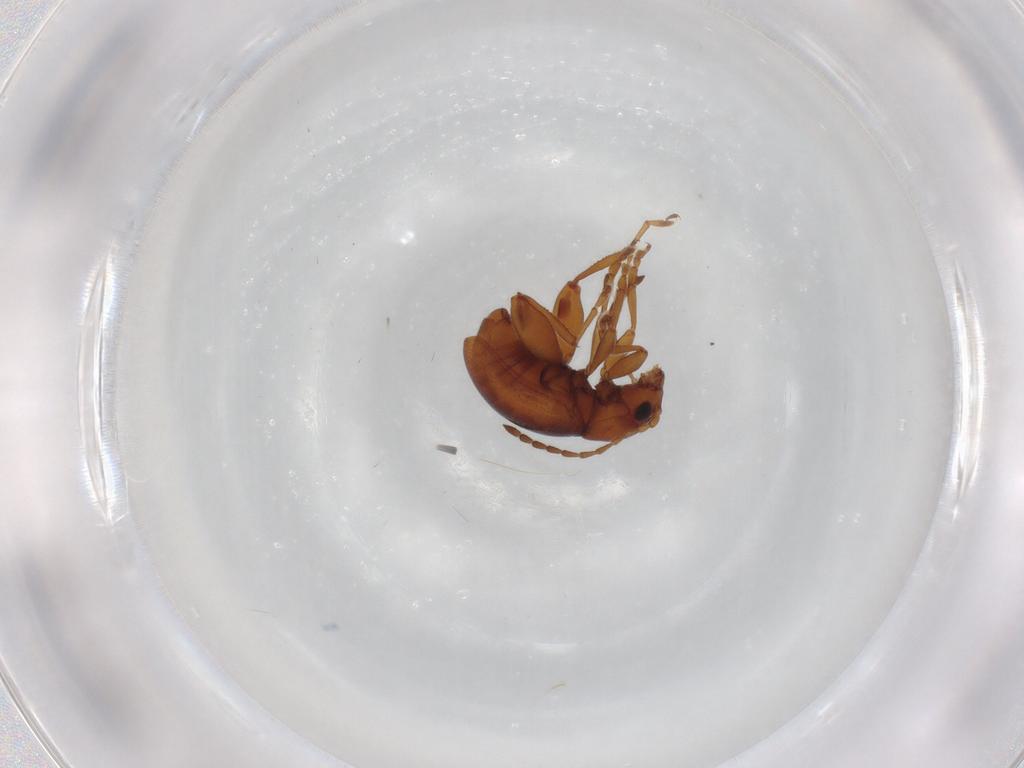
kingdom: Animalia
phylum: Arthropoda
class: Insecta
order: Coleoptera
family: Chrysomelidae
